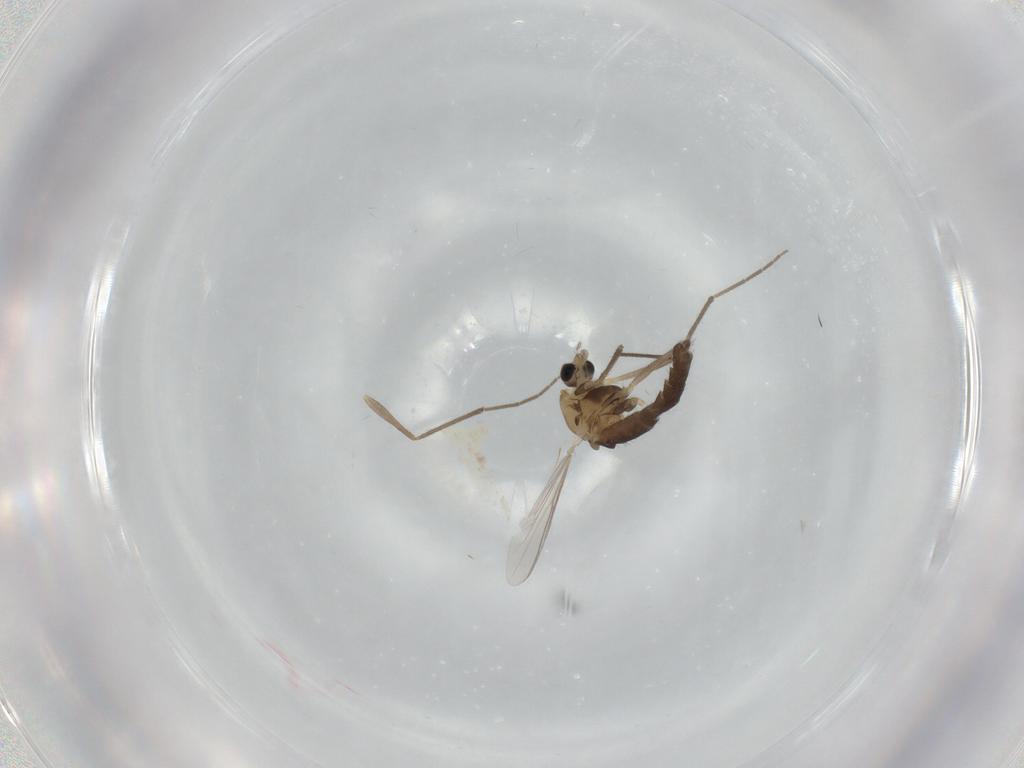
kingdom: Animalia
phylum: Arthropoda
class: Insecta
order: Diptera
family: Chironomidae
